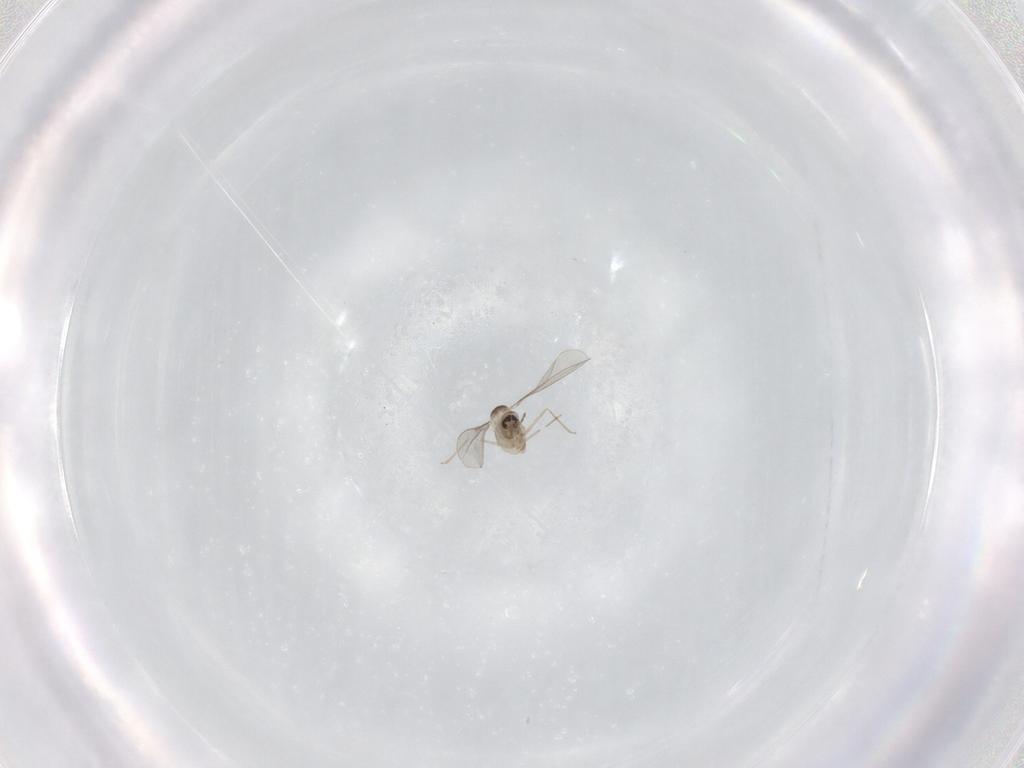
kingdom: Animalia
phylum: Arthropoda
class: Insecta
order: Diptera
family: Cecidomyiidae
